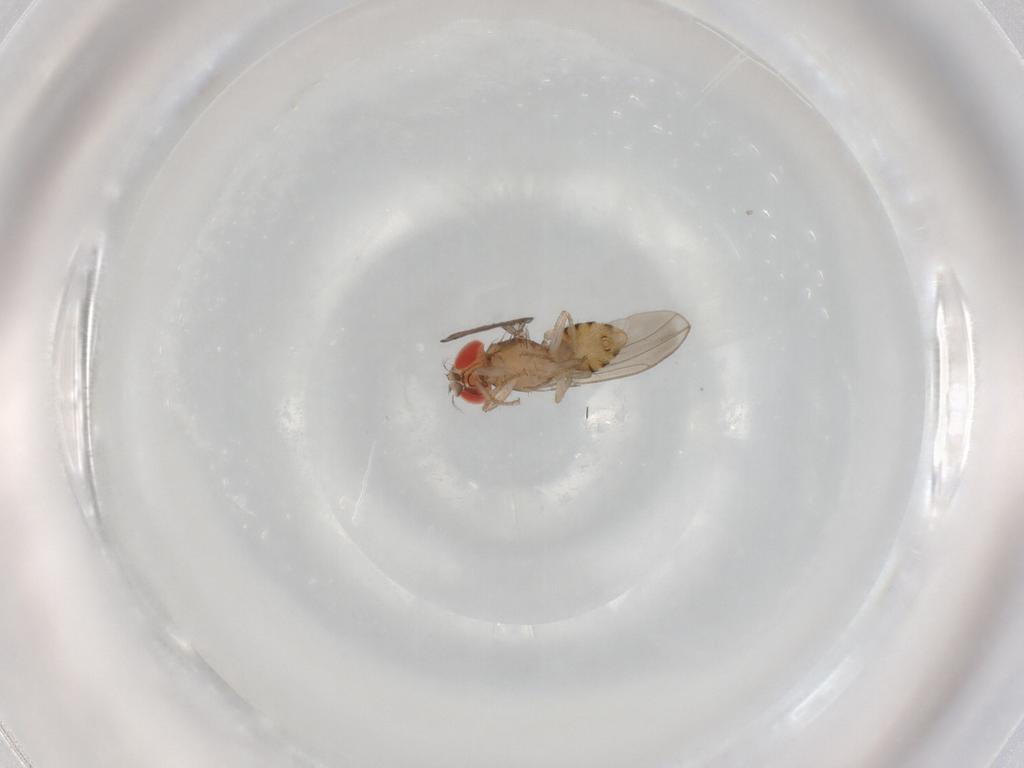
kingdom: Animalia
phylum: Arthropoda
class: Insecta
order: Diptera
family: Drosophilidae
